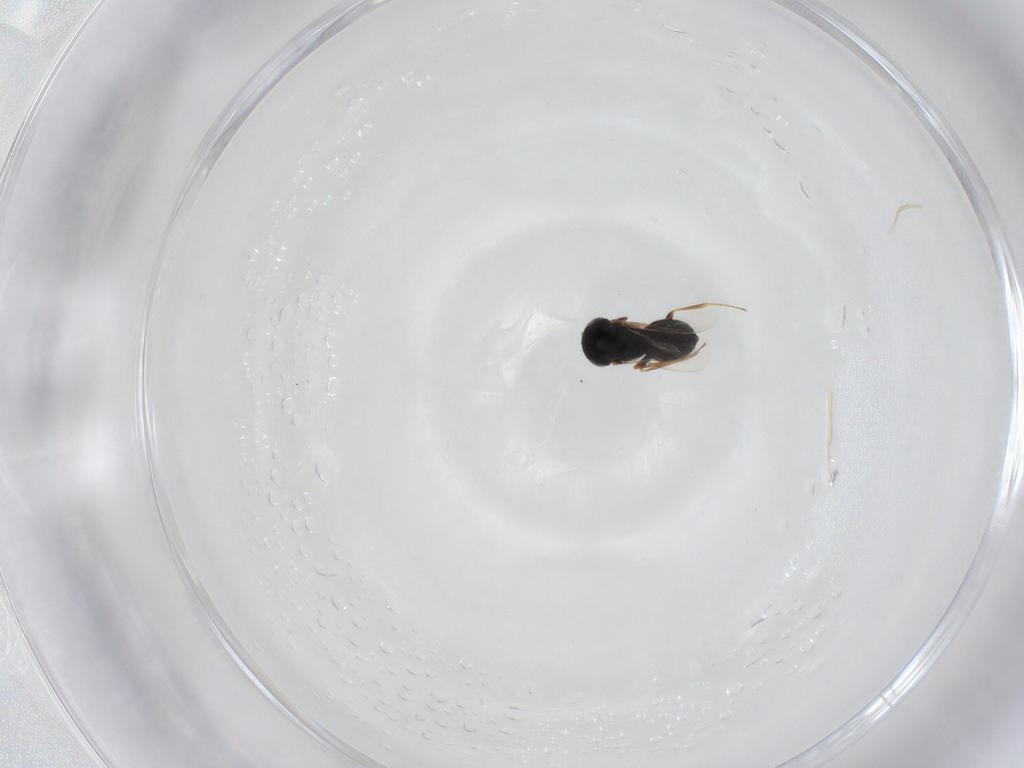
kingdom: Animalia
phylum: Arthropoda
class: Insecta
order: Hymenoptera
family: Scelionidae
